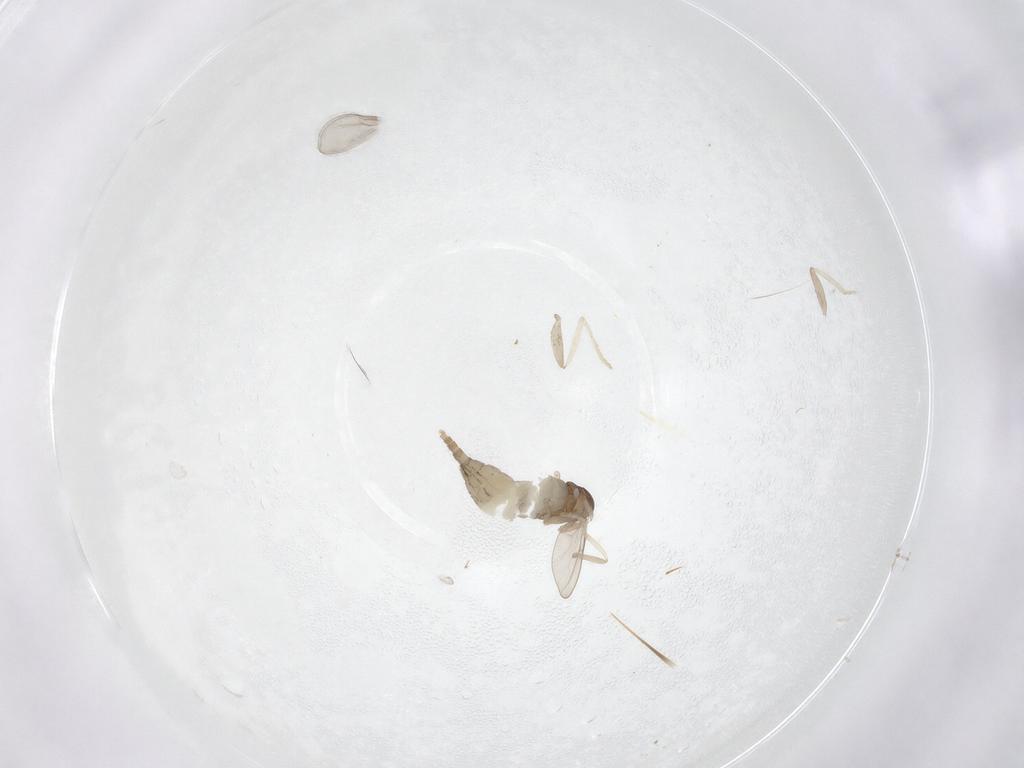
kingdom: Animalia
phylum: Arthropoda
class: Insecta
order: Diptera
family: Cecidomyiidae
